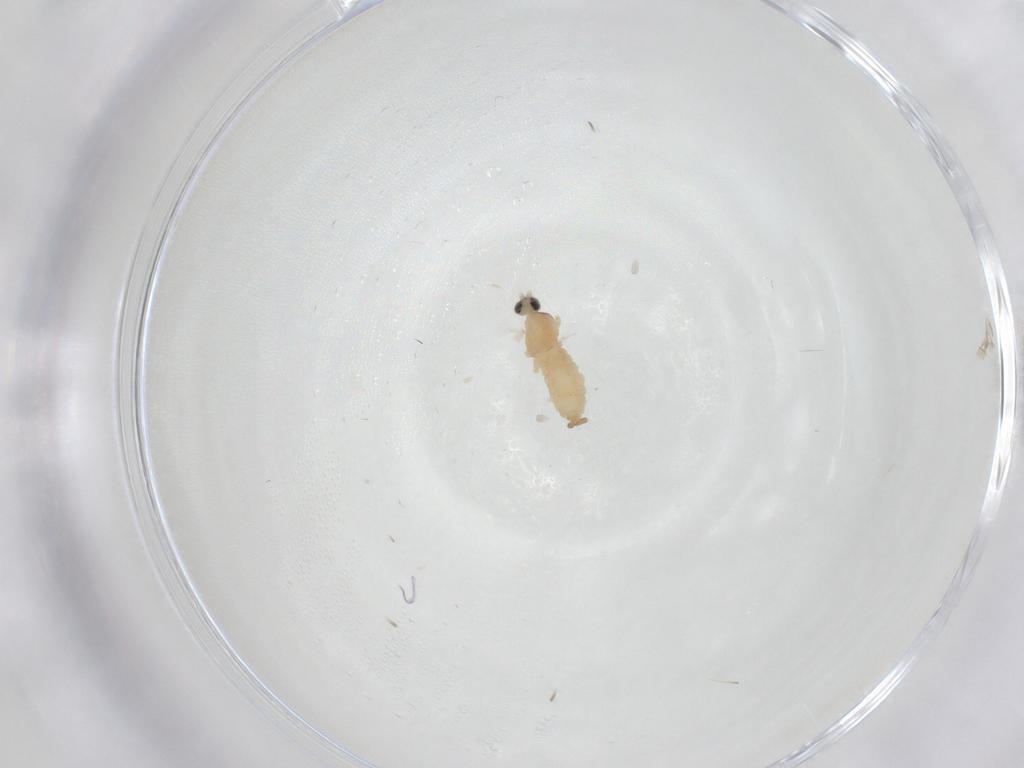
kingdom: Animalia
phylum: Arthropoda
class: Insecta
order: Diptera
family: Cecidomyiidae
